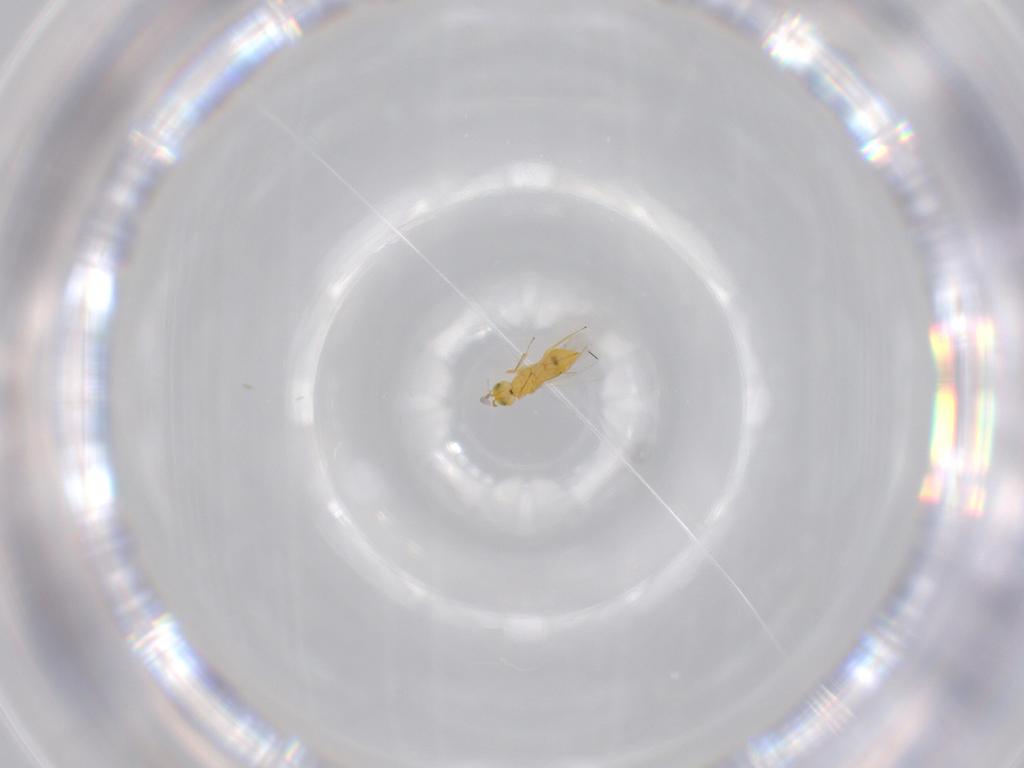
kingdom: Animalia
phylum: Arthropoda
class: Insecta
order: Hymenoptera
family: Aphelinidae
